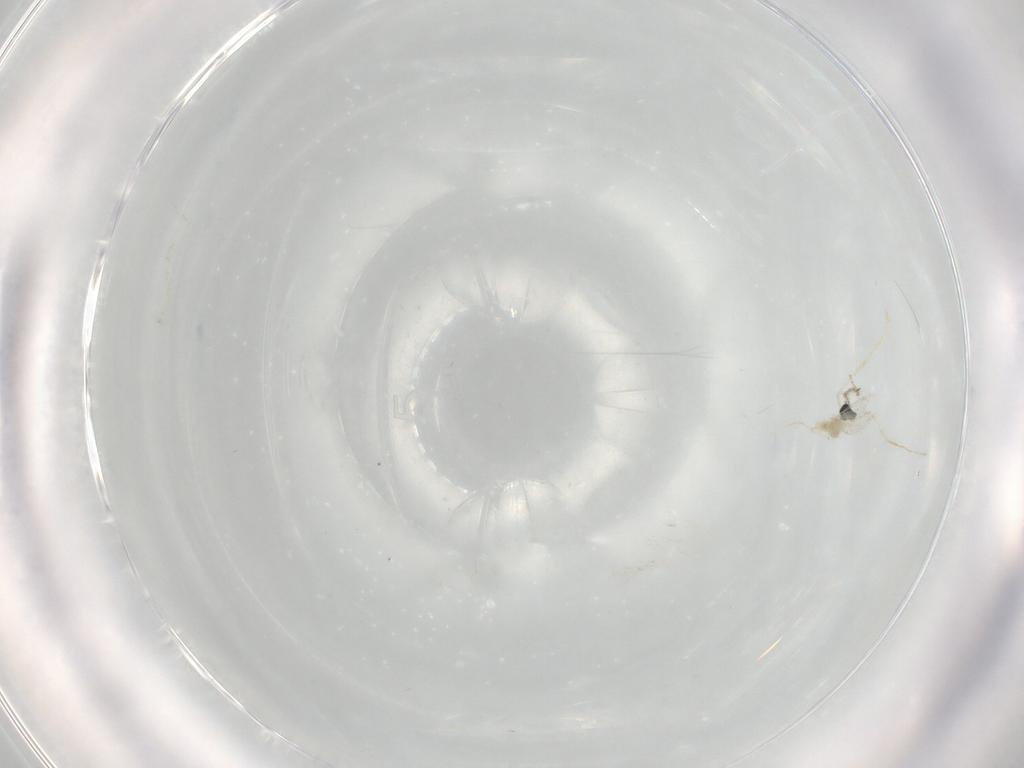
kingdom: Animalia
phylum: Arthropoda
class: Insecta
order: Diptera
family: Cecidomyiidae
